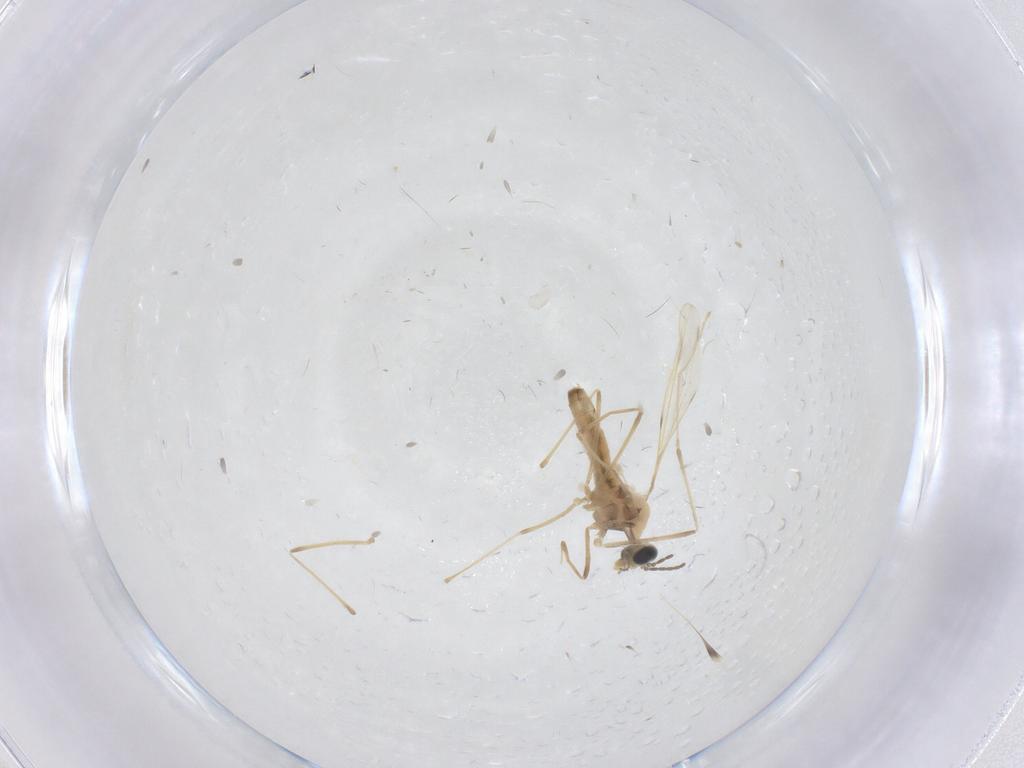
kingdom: Animalia
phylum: Arthropoda
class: Insecta
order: Diptera
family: Cecidomyiidae
